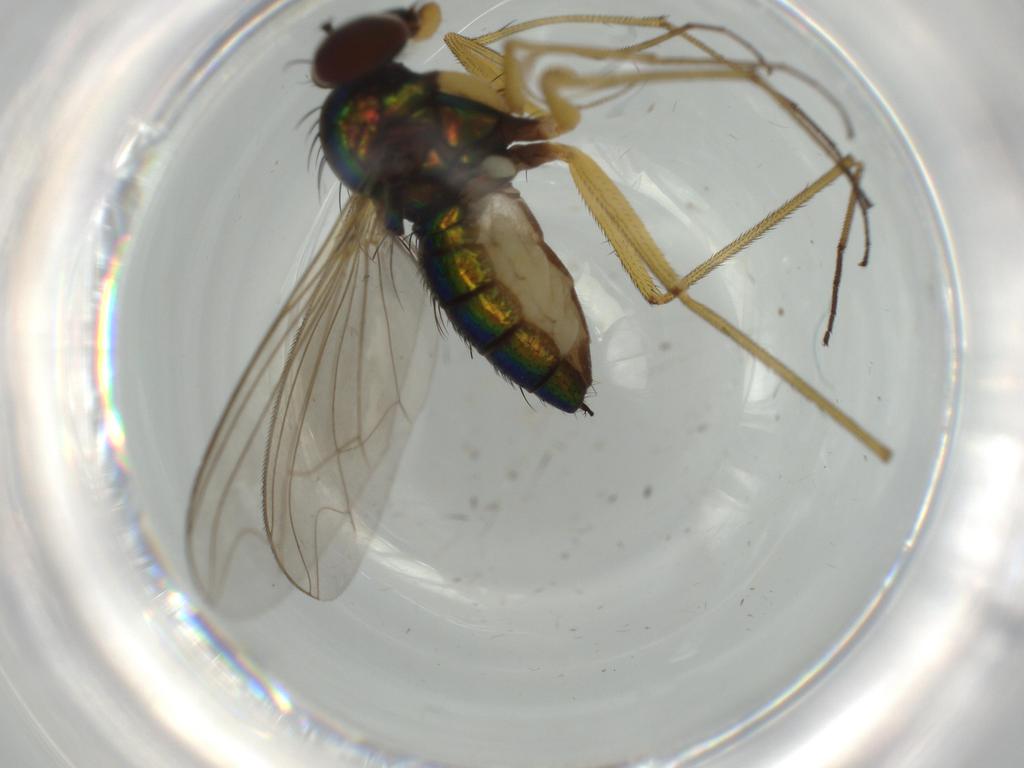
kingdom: Animalia
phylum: Arthropoda
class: Insecta
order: Diptera
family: Dolichopodidae
